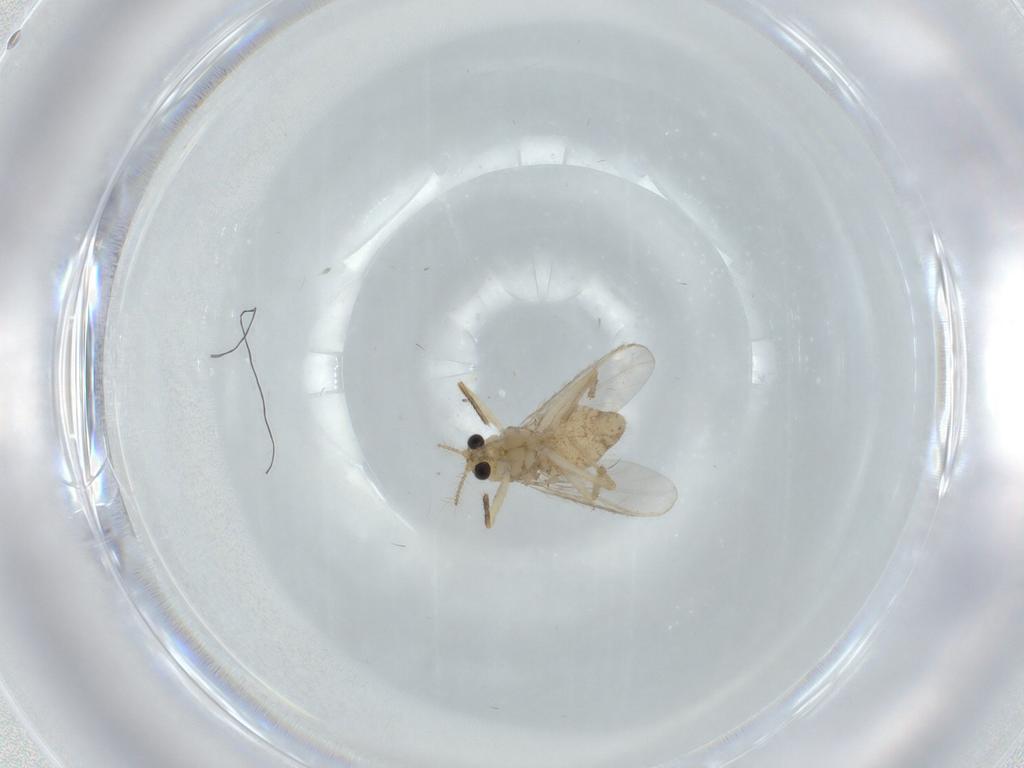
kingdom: Animalia
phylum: Arthropoda
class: Insecta
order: Diptera
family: Chironomidae
